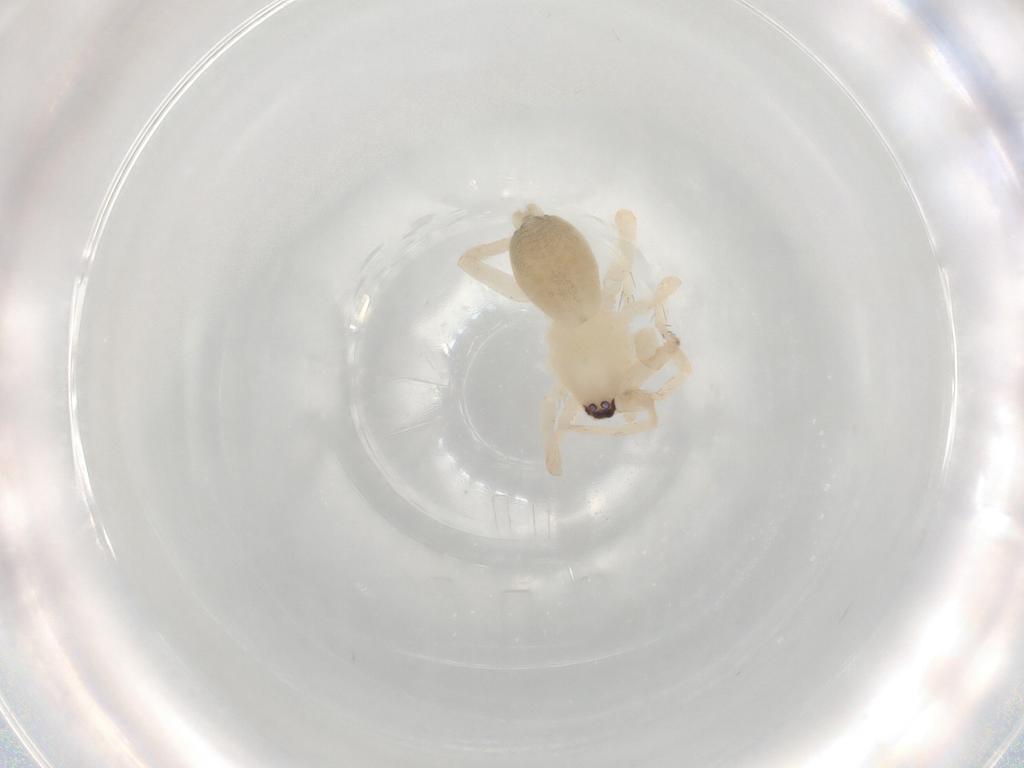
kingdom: Animalia
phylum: Arthropoda
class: Arachnida
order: Araneae
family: Gnaphosidae
